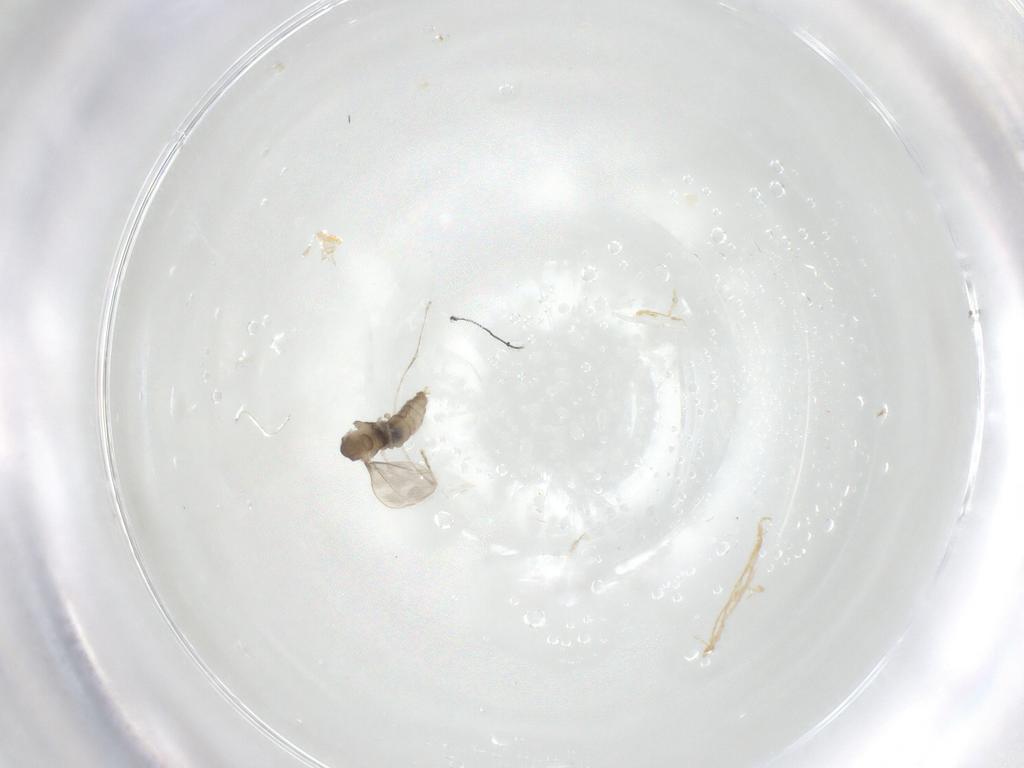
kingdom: Animalia
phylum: Arthropoda
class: Insecta
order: Diptera
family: Cecidomyiidae
